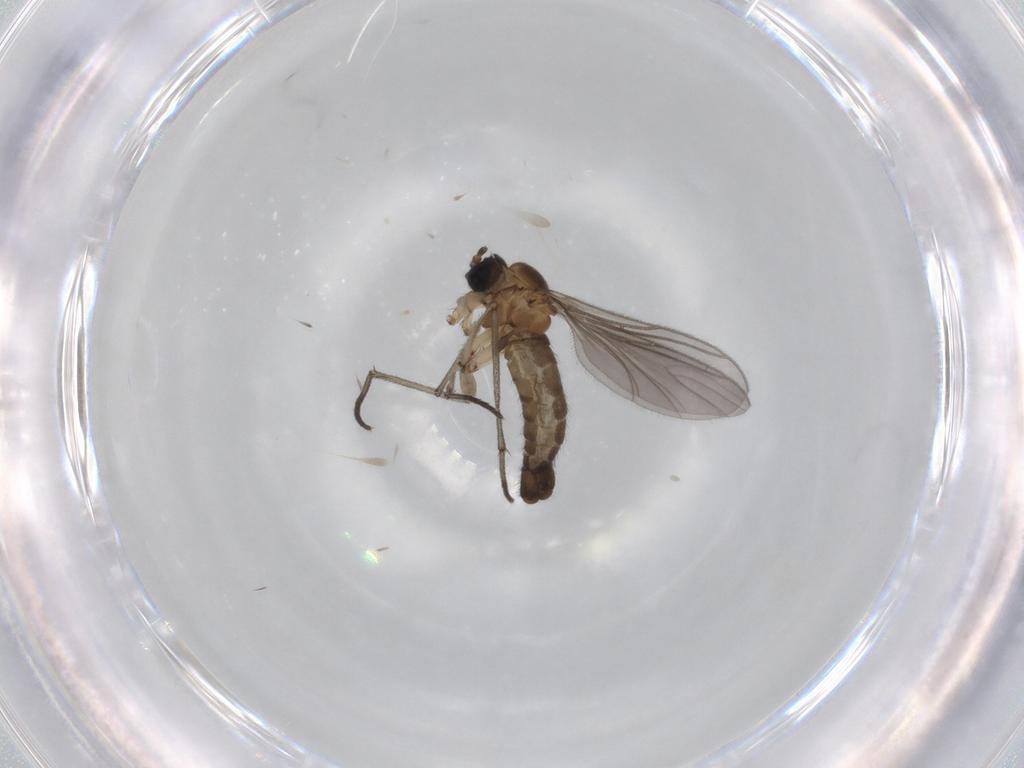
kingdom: Animalia
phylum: Arthropoda
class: Insecta
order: Diptera
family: Sciaridae
